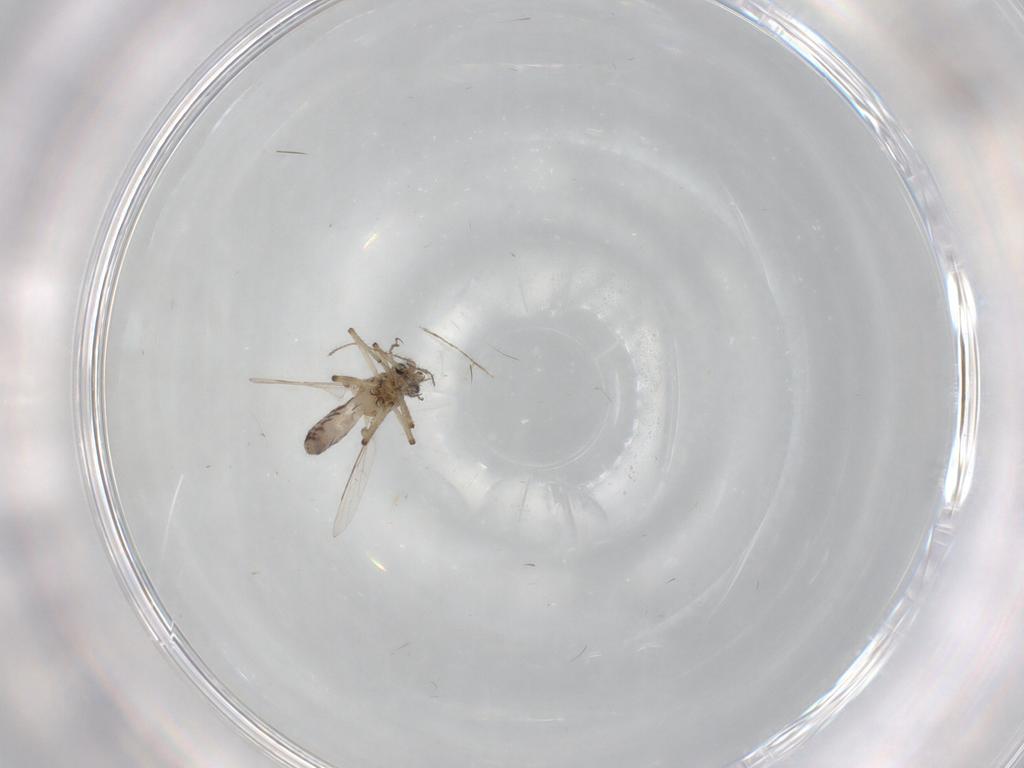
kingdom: Animalia
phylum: Arthropoda
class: Insecta
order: Diptera
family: Ceratopogonidae
